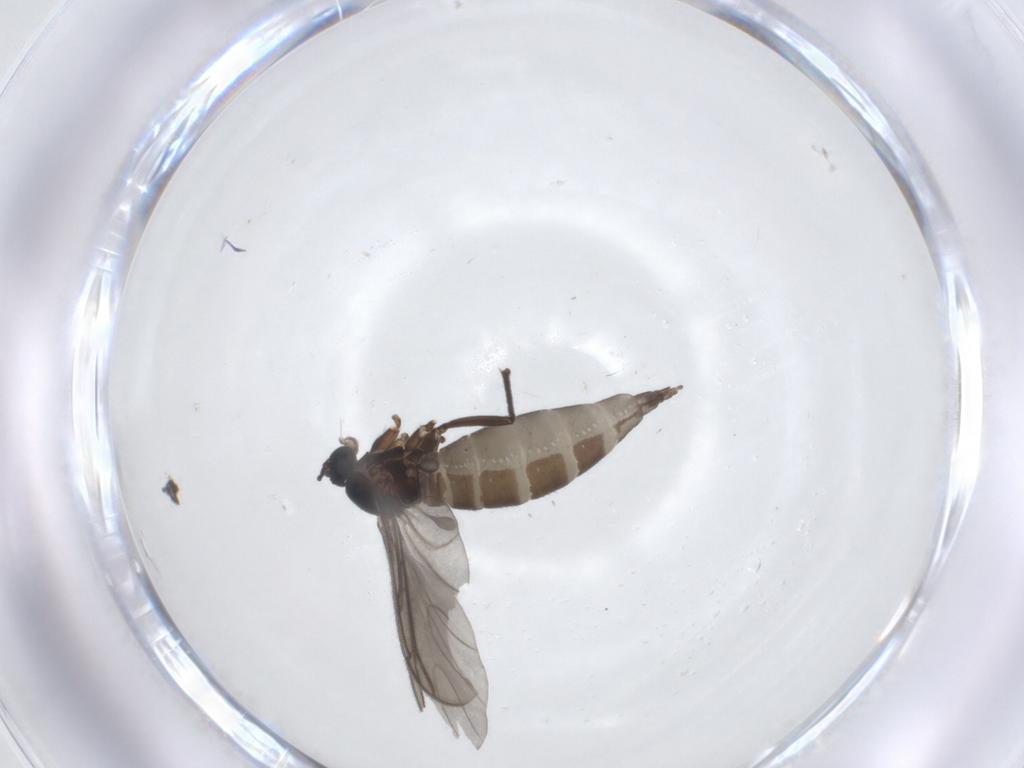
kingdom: Animalia
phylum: Arthropoda
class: Insecta
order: Diptera
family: Sciaridae
